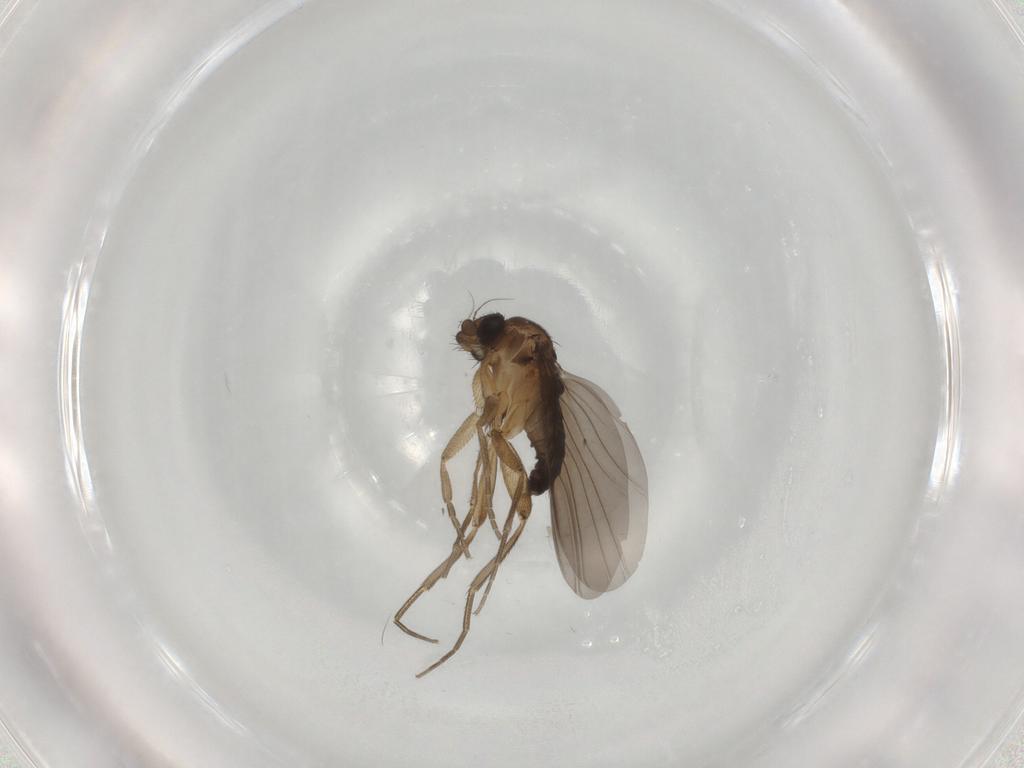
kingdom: Animalia
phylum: Arthropoda
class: Insecta
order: Diptera
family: Phoridae
